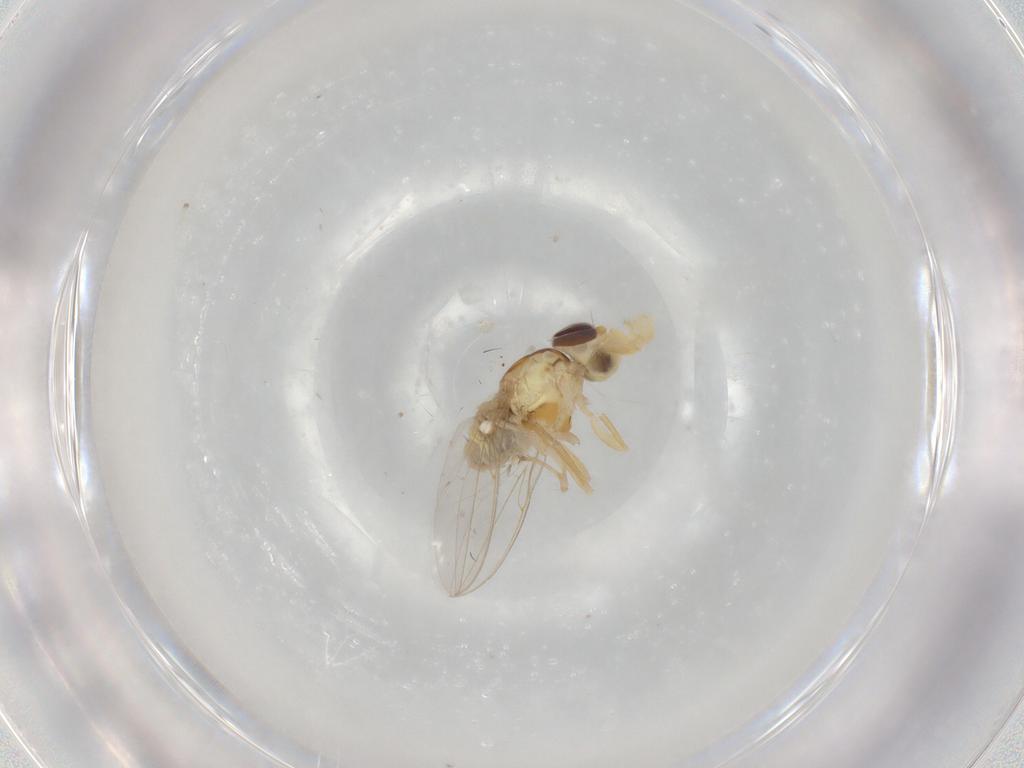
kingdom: Animalia
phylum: Arthropoda
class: Insecta
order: Diptera
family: Asteiidae
